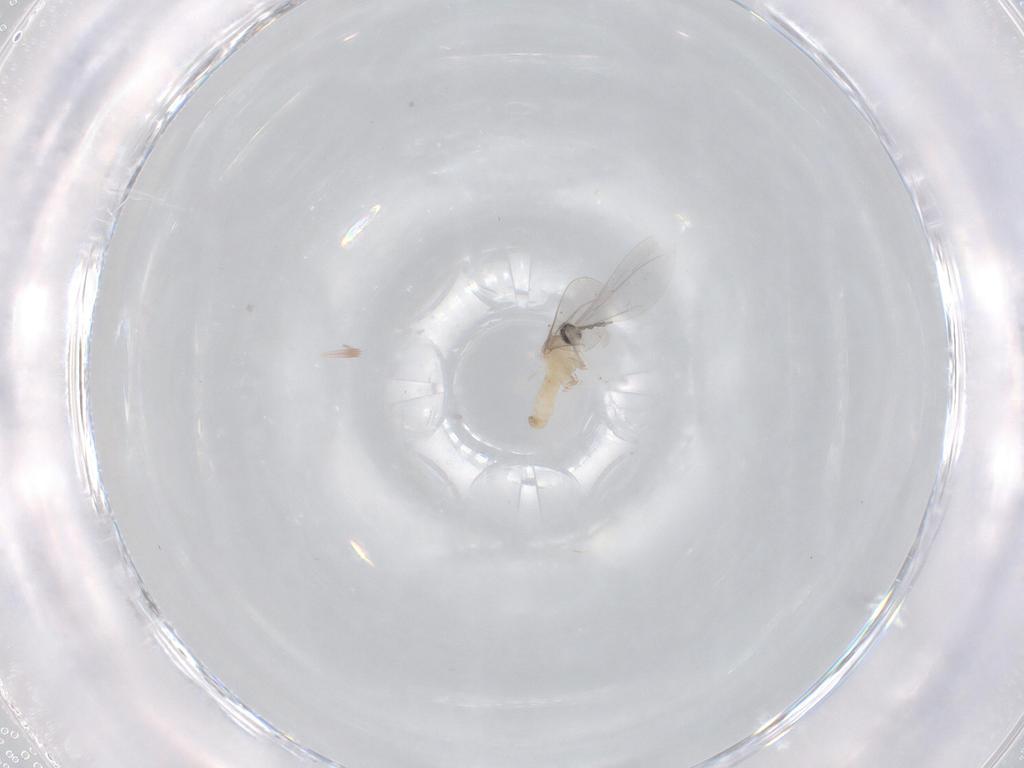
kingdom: Animalia
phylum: Arthropoda
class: Insecta
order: Diptera
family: Cecidomyiidae
